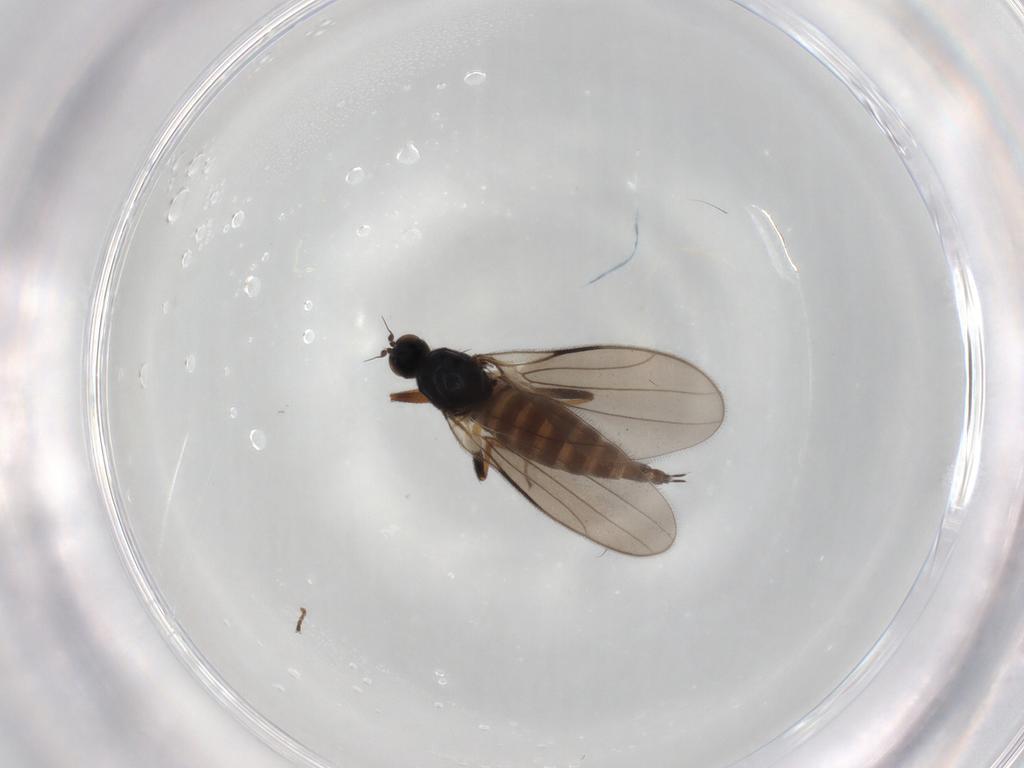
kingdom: Animalia
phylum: Arthropoda
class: Insecta
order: Diptera
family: Hybotidae
